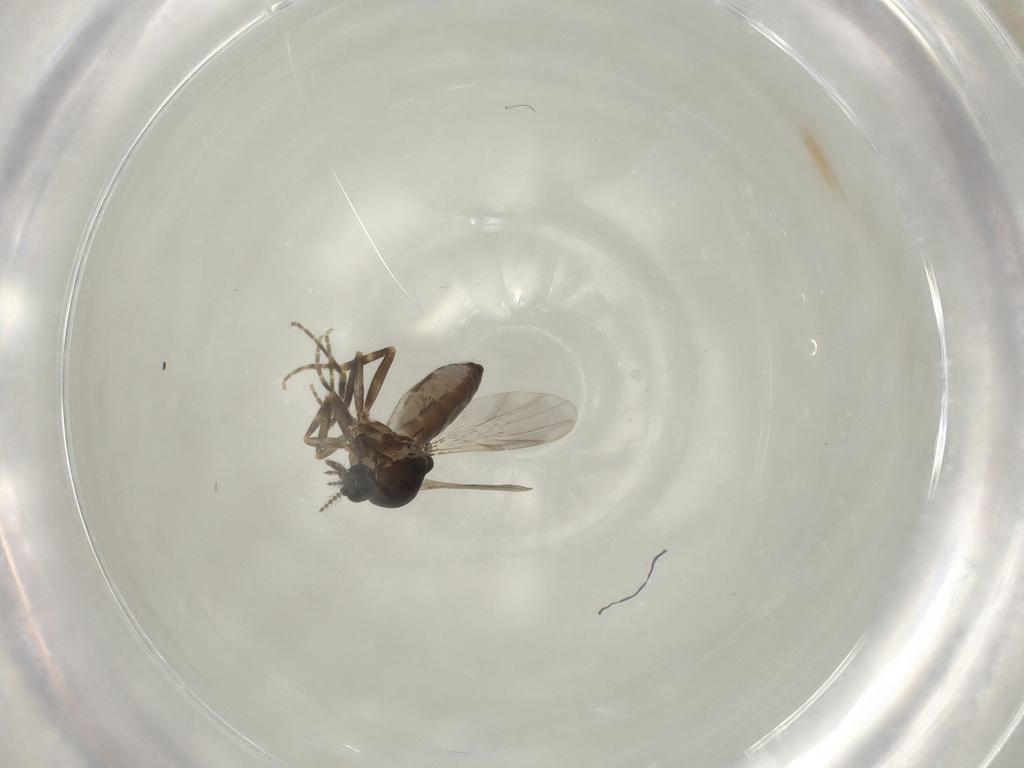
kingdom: Animalia
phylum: Arthropoda
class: Insecta
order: Diptera
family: Ceratopogonidae
